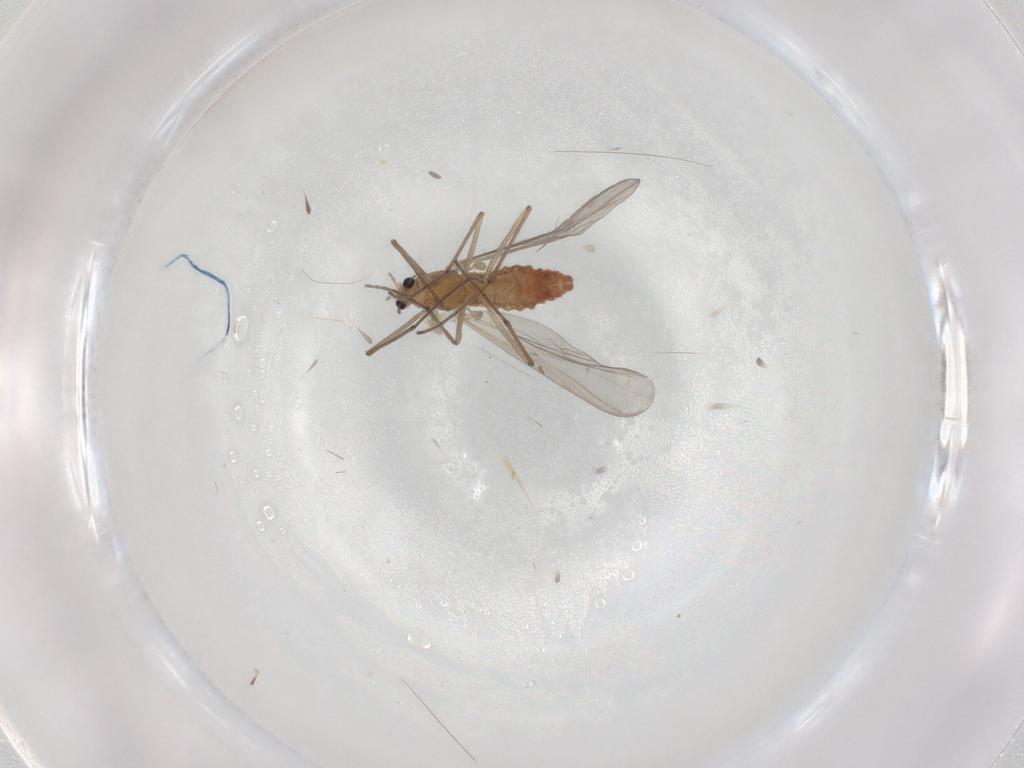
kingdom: Animalia
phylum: Arthropoda
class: Insecta
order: Diptera
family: Chironomidae
